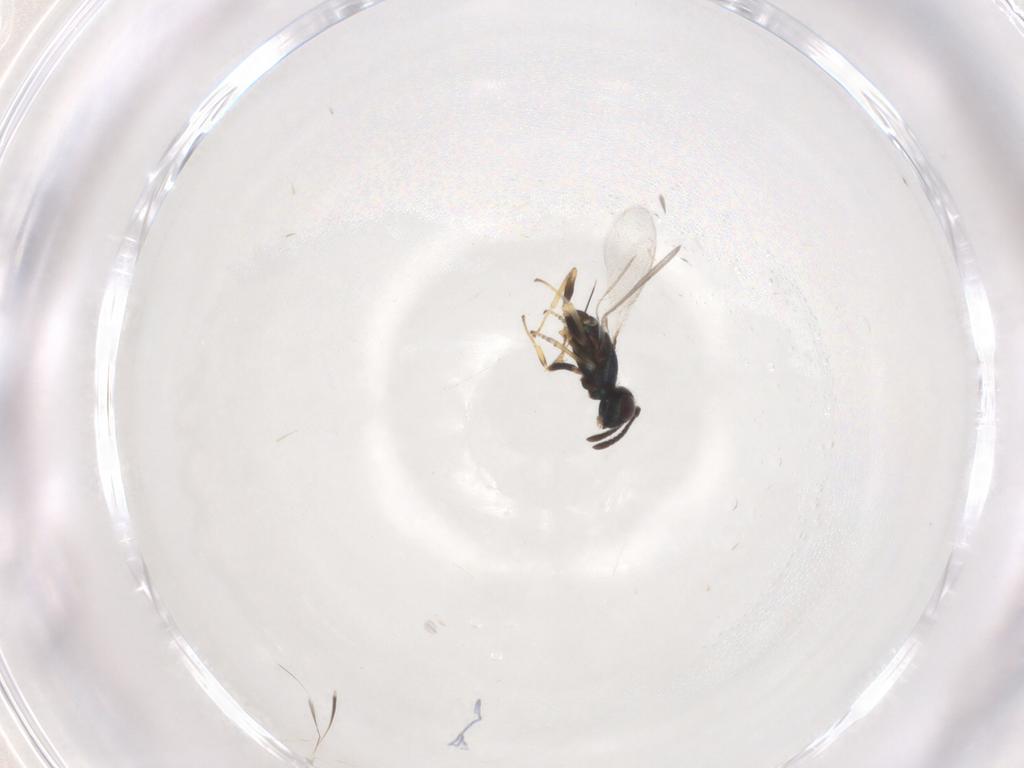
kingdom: Animalia
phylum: Arthropoda
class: Insecta
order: Hymenoptera
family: Eupelmidae
